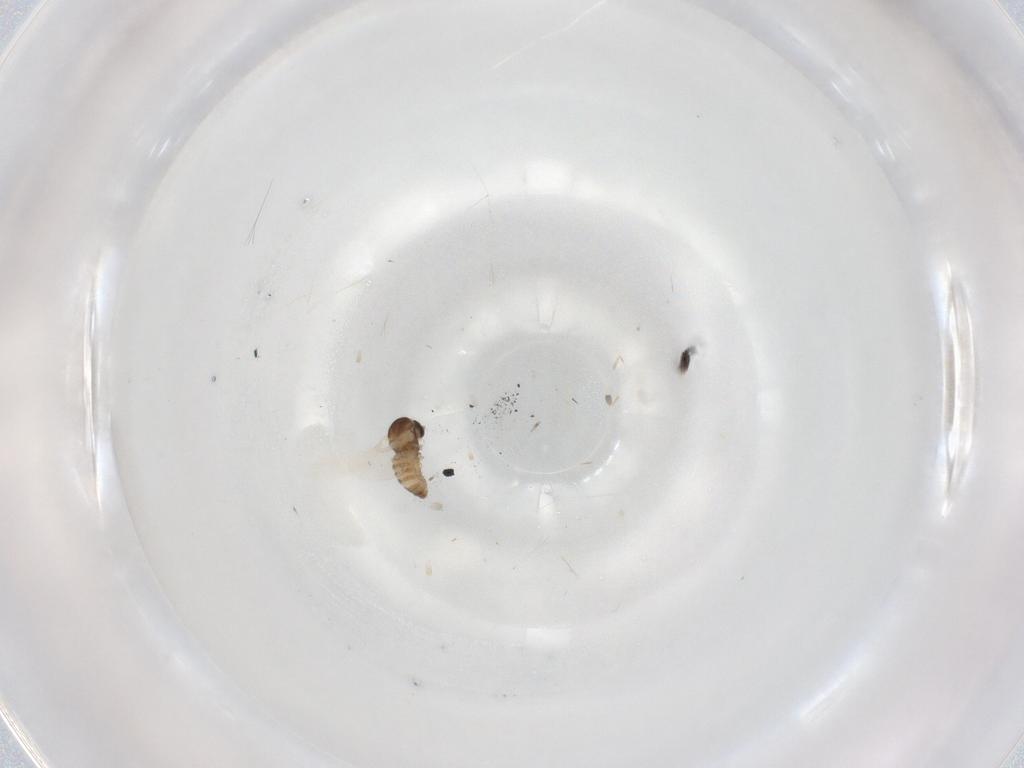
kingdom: Animalia
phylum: Arthropoda
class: Insecta
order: Diptera
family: Cecidomyiidae
